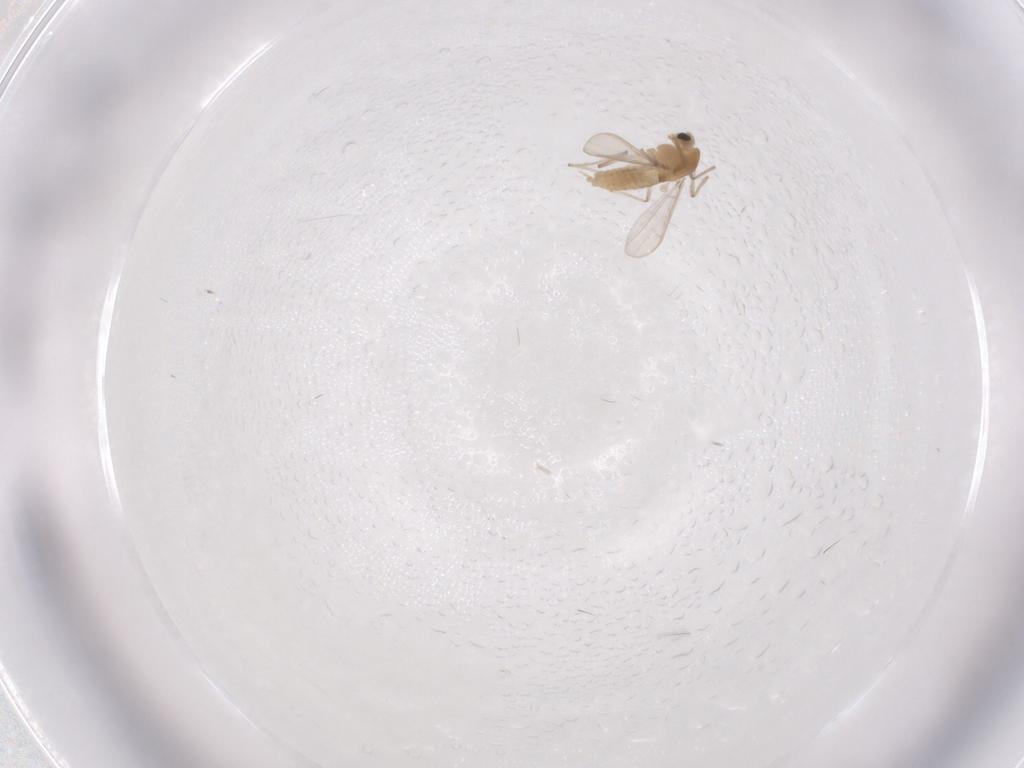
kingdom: Animalia
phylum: Arthropoda
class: Insecta
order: Diptera
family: Chironomidae
